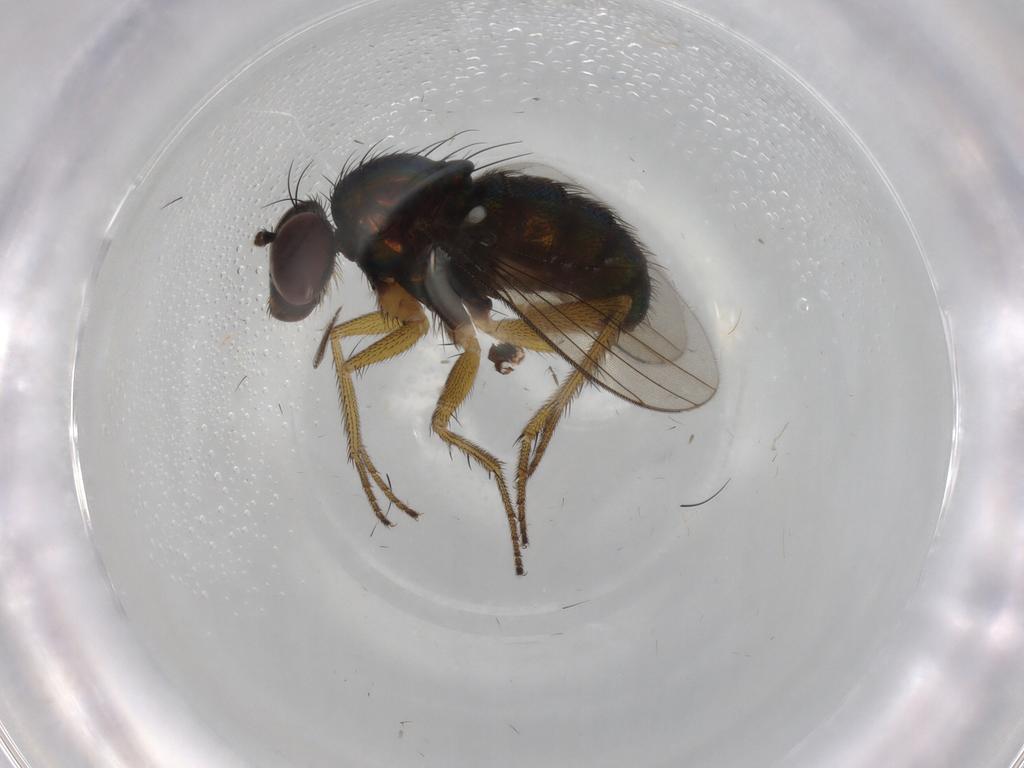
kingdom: Animalia
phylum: Arthropoda
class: Insecta
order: Diptera
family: Dolichopodidae
